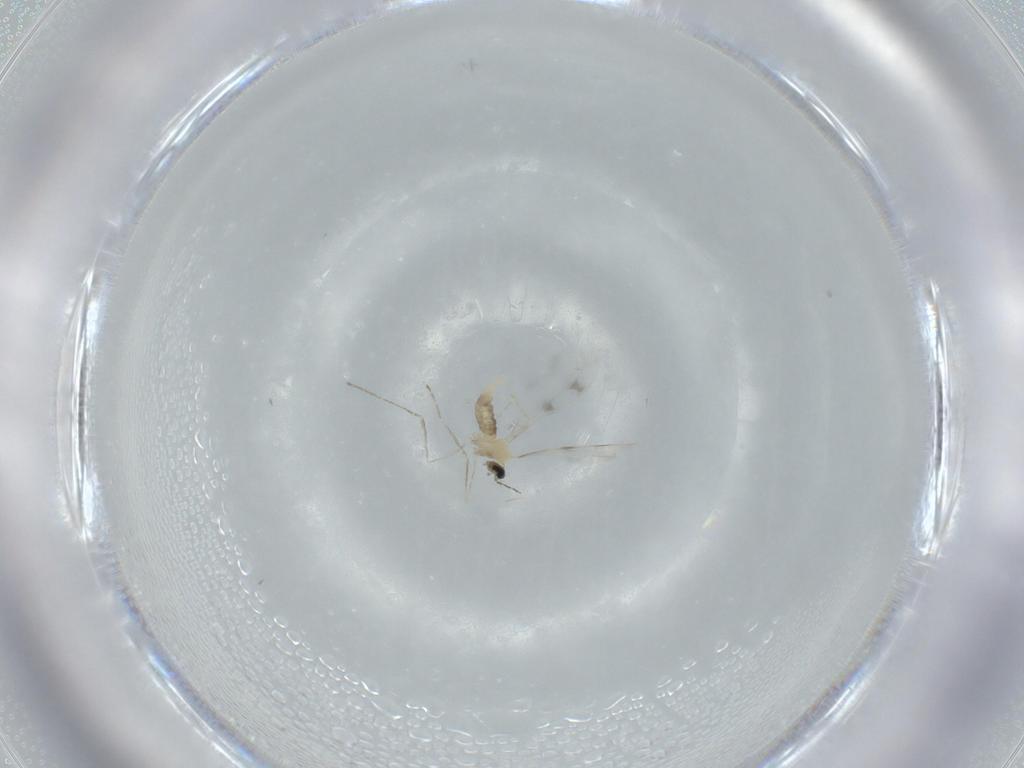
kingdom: Animalia
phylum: Arthropoda
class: Insecta
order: Diptera
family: Cecidomyiidae
